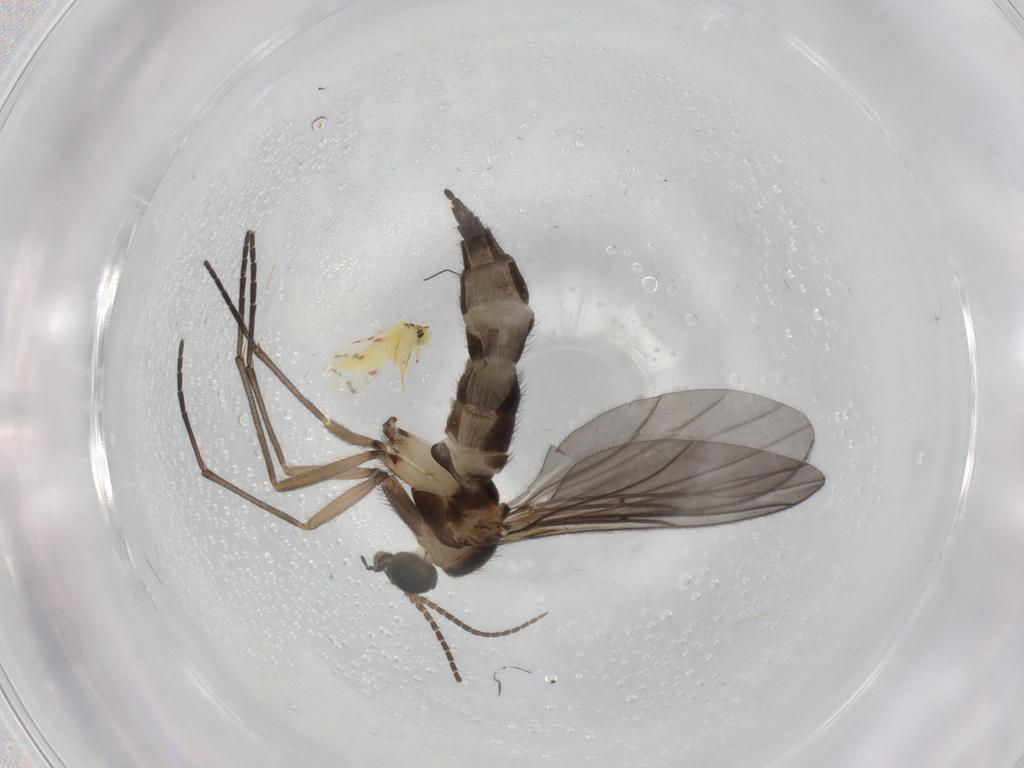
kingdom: Animalia
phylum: Arthropoda
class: Insecta
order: Diptera
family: Sciaridae
